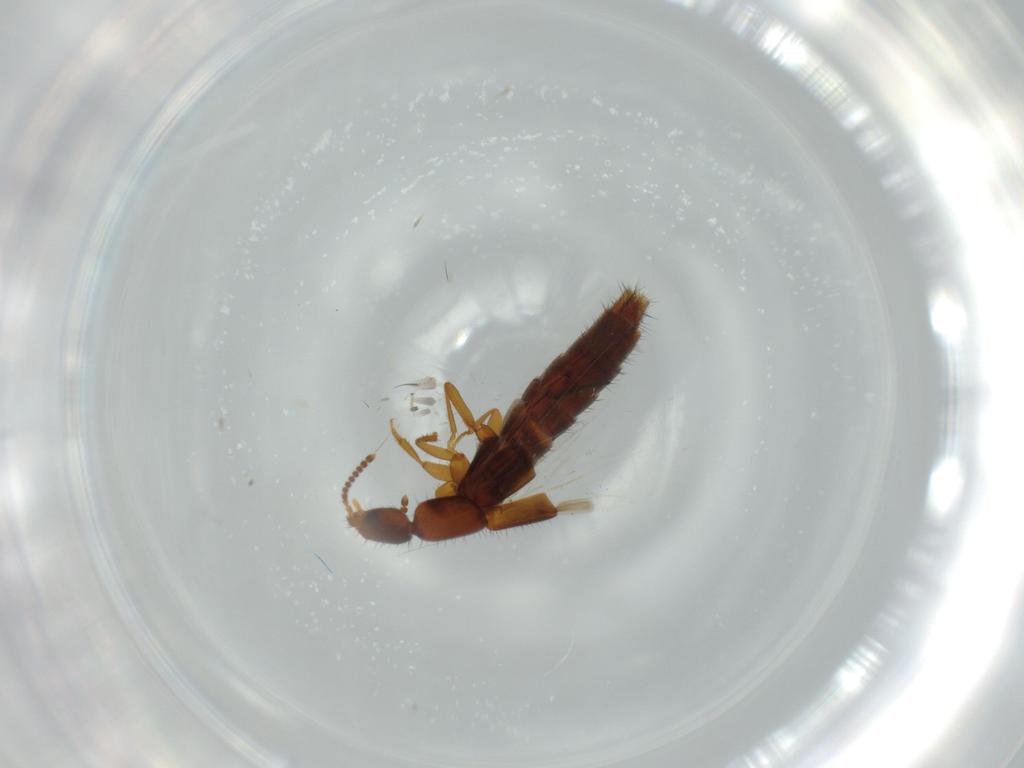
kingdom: Animalia
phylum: Arthropoda
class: Insecta
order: Coleoptera
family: Staphylinidae
